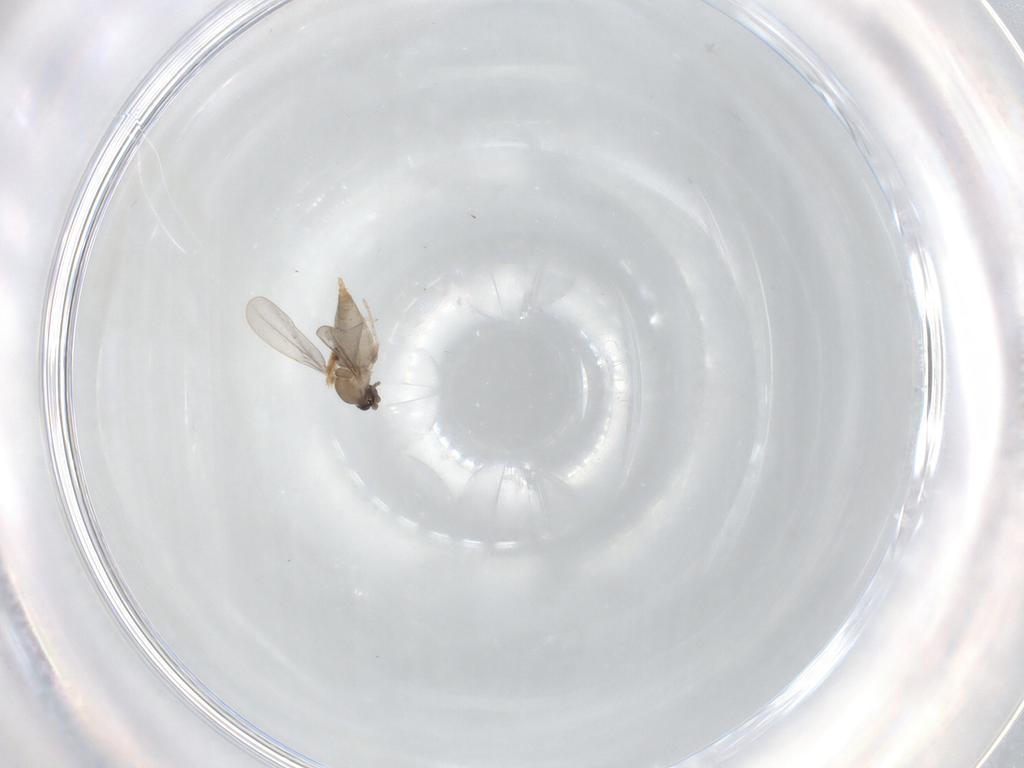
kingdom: Animalia
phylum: Arthropoda
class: Insecta
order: Diptera
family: Cecidomyiidae
